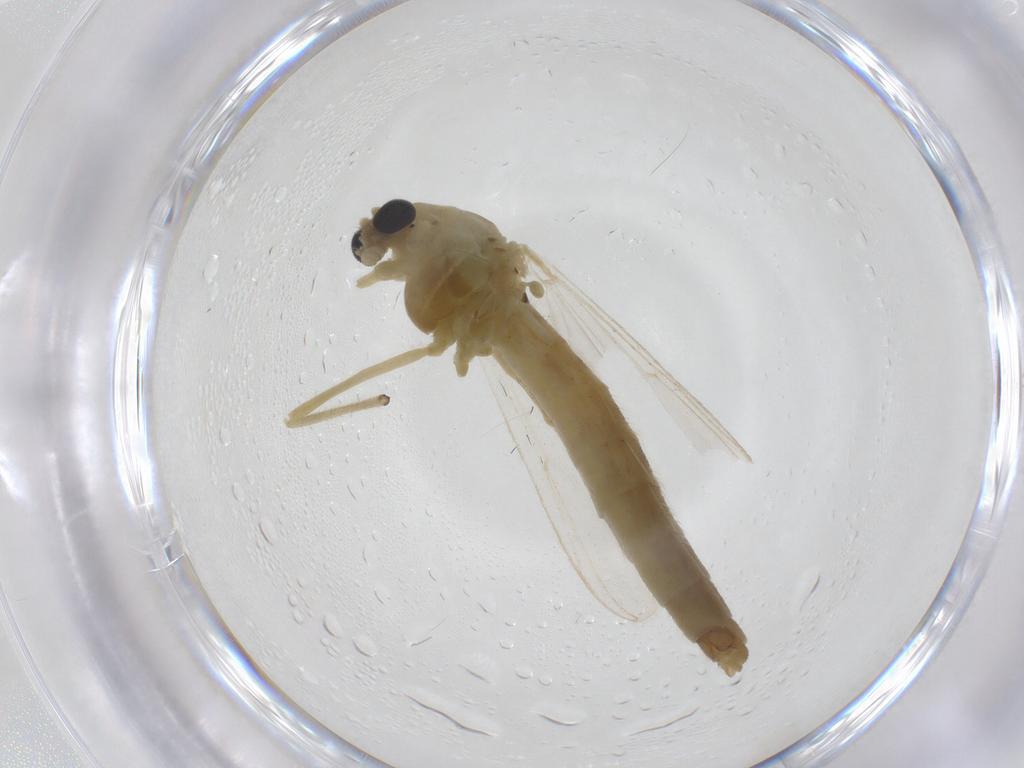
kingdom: Animalia
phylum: Arthropoda
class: Insecta
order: Diptera
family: Chironomidae
